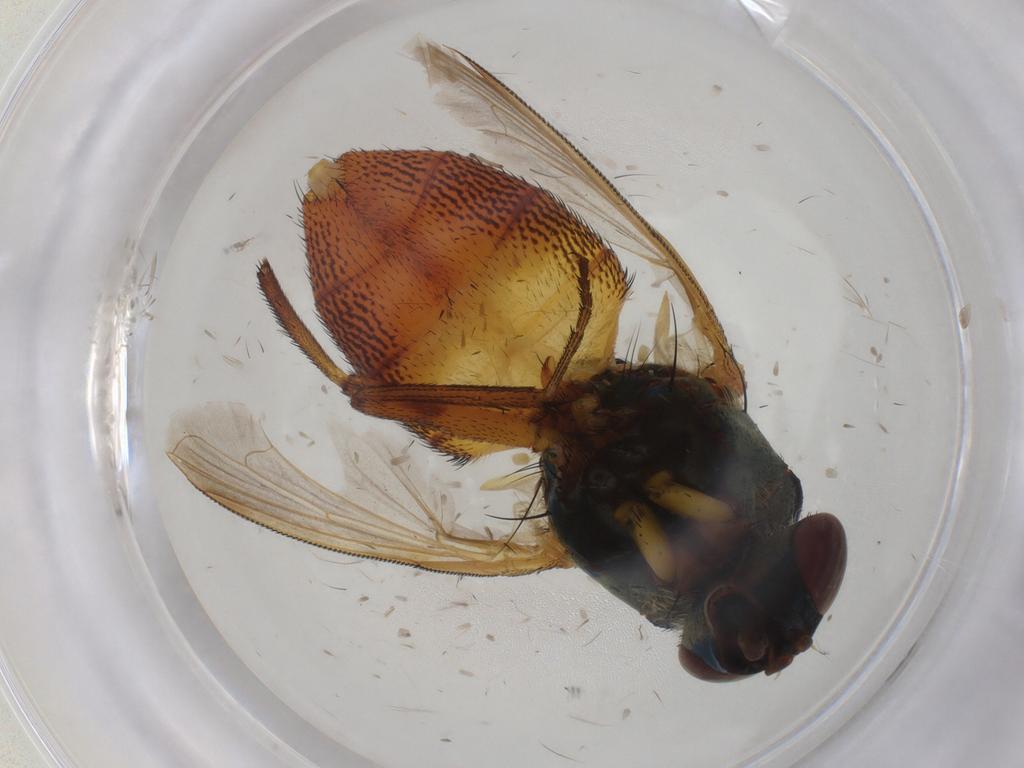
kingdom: Animalia
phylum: Arthropoda
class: Insecta
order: Diptera
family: Calliphoridae
